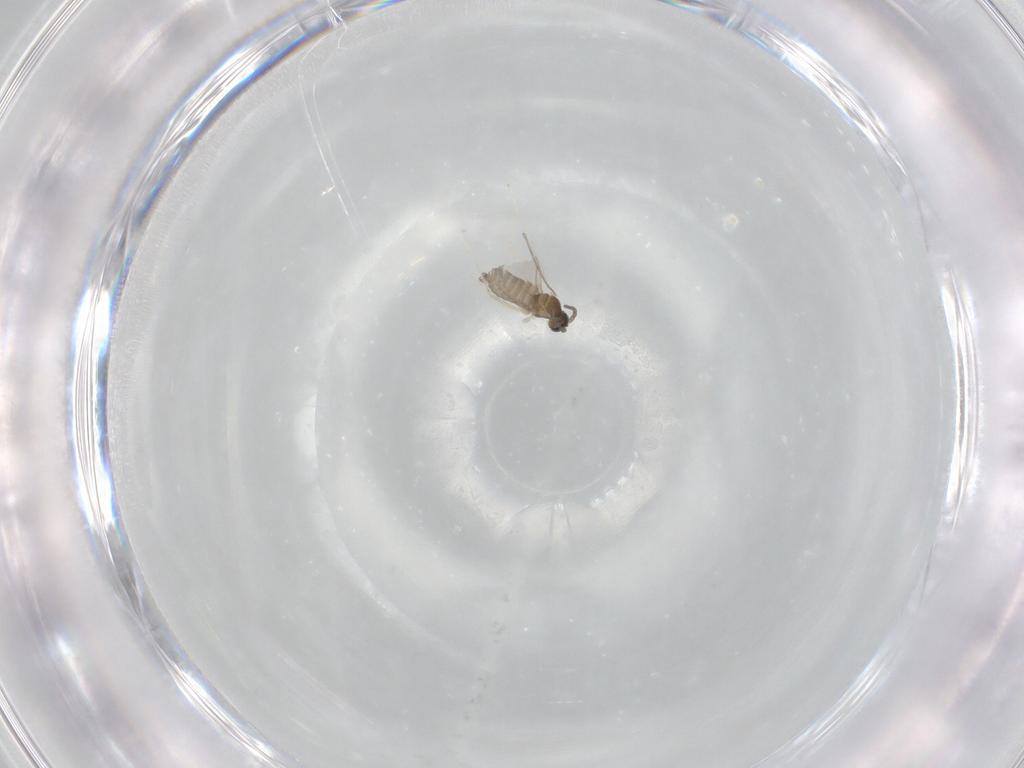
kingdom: Animalia
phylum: Arthropoda
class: Insecta
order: Diptera
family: Cecidomyiidae
